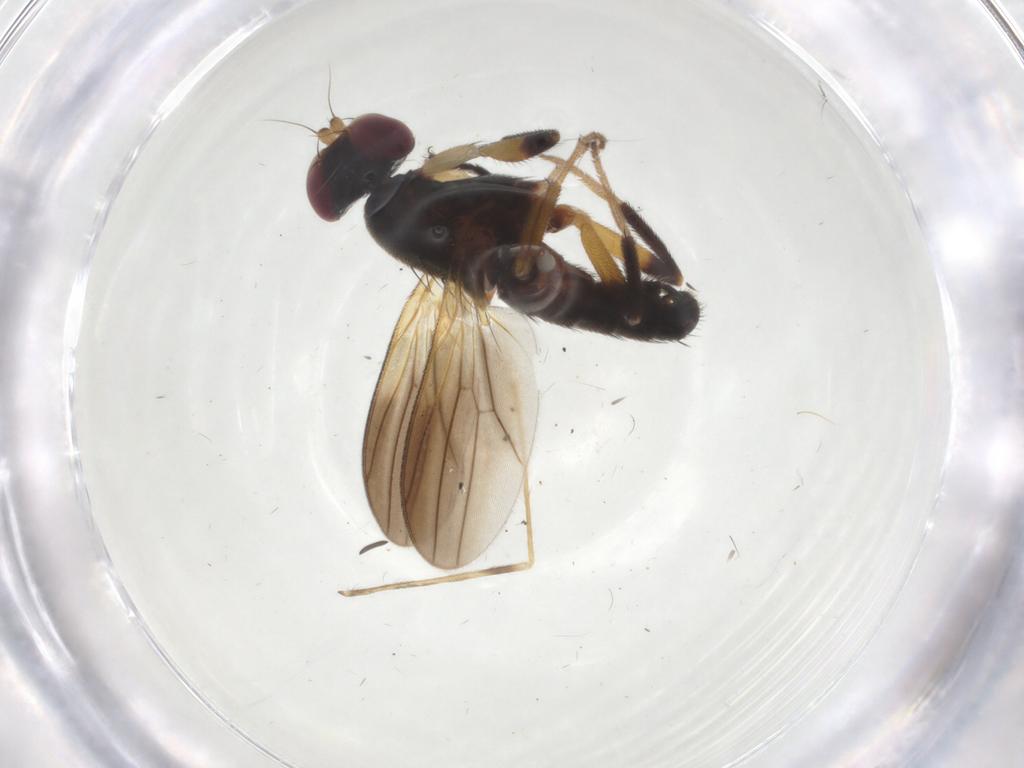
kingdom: Animalia
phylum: Arthropoda
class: Insecta
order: Diptera
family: Clusiidae
